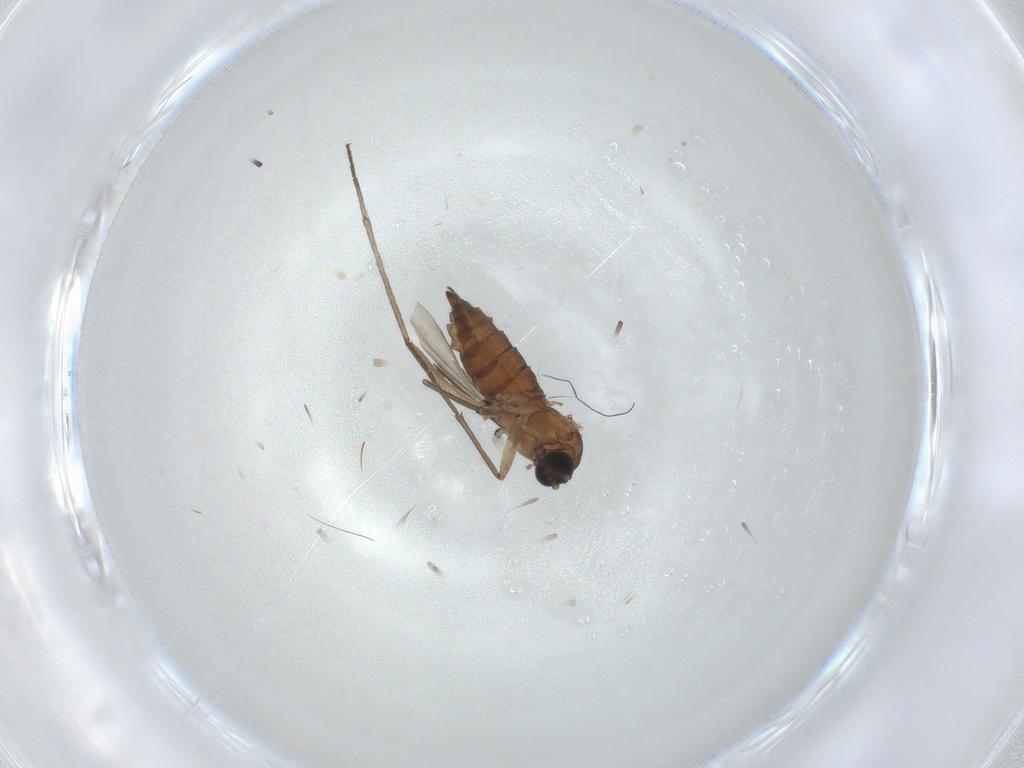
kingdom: Animalia
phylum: Arthropoda
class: Insecta
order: Diptera
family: Sciaridae
